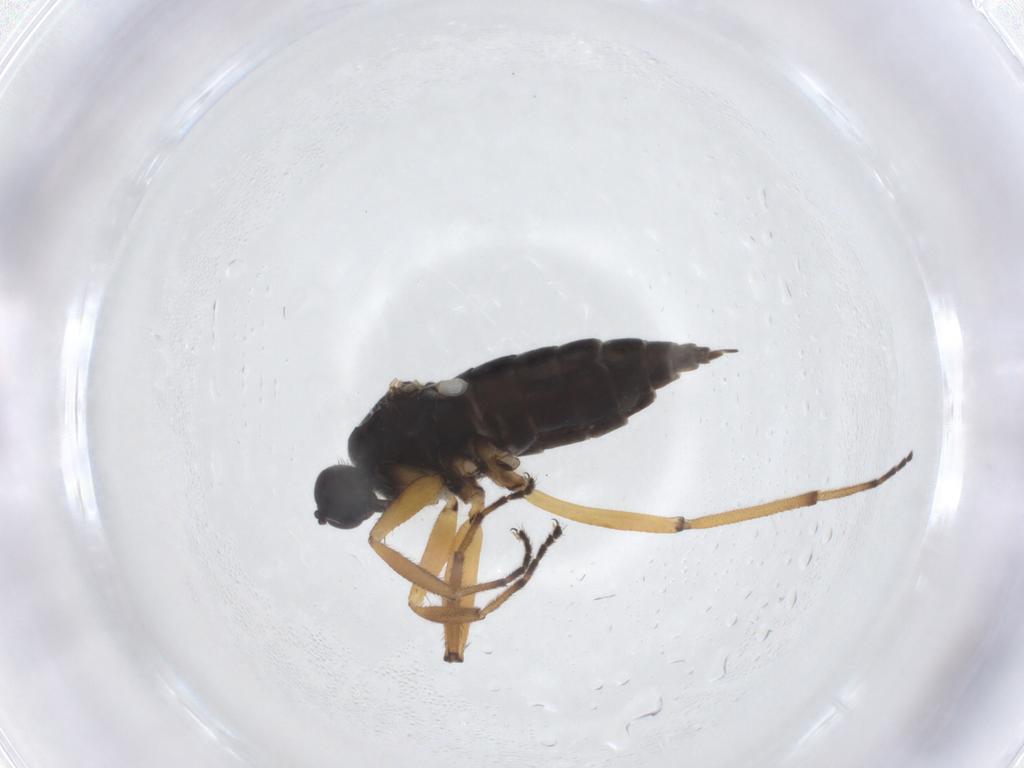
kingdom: Animalia
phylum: Arthropoda
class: Insecta
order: Diptera
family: Hybotidae
